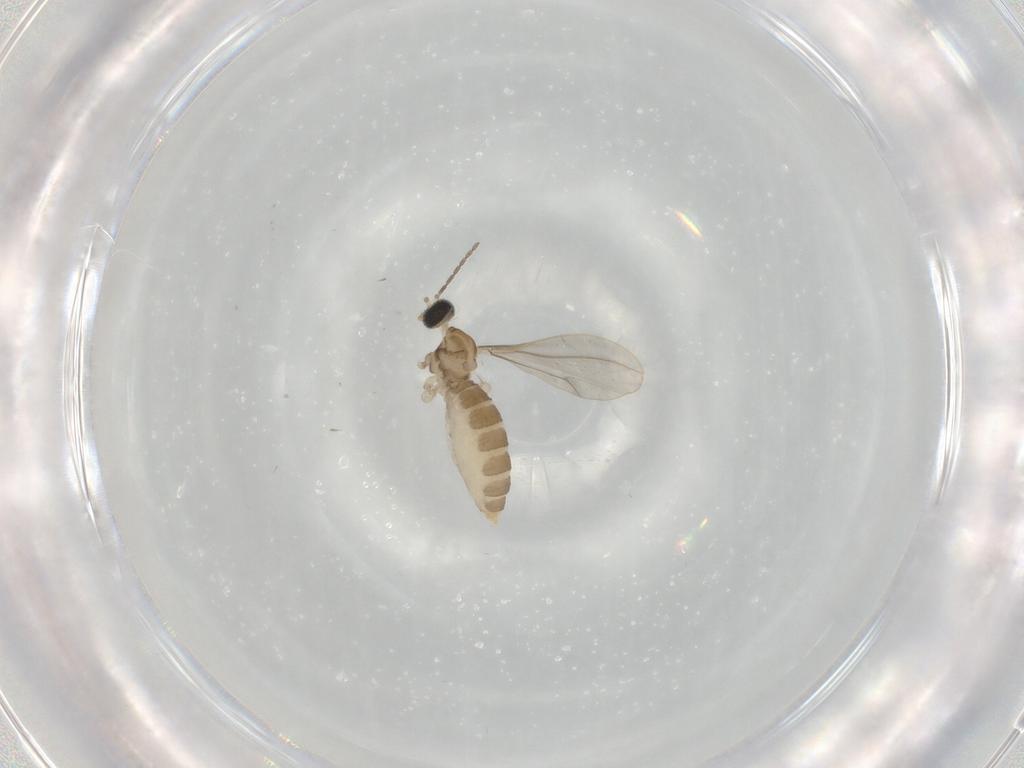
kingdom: Animalia
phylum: Arthropoda
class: Insecta
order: Diptera
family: Cecidomyiidae
